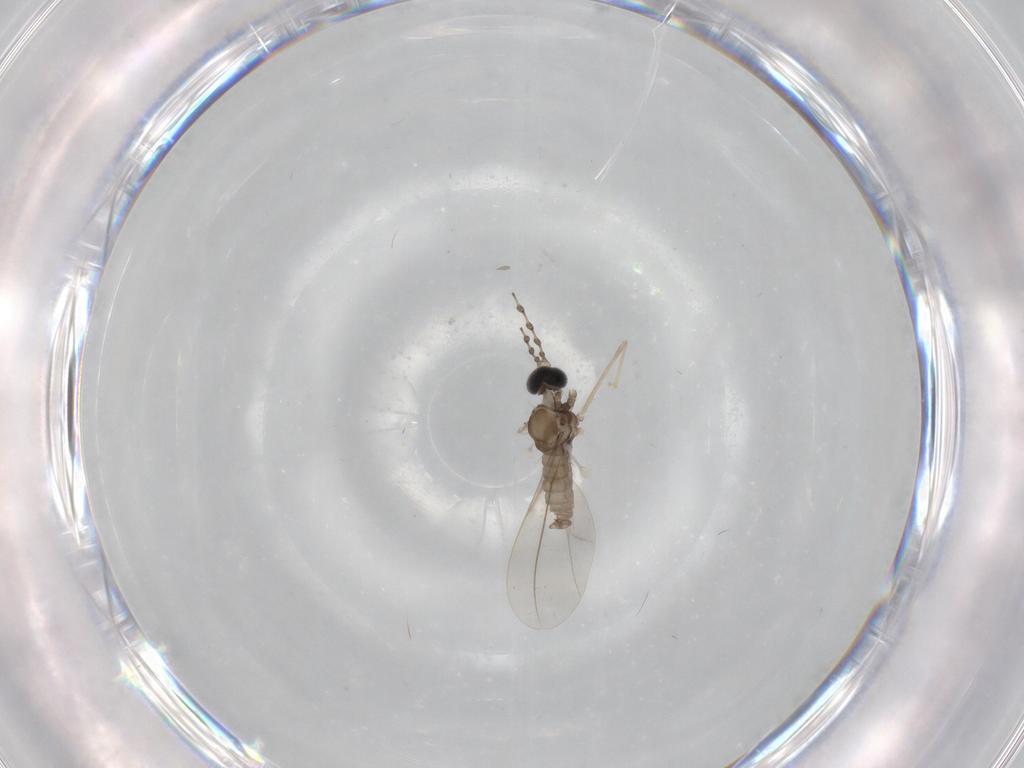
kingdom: Animalia
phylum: Arthropoda
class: Insecta
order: Diptera
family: Cecidomyiidae
